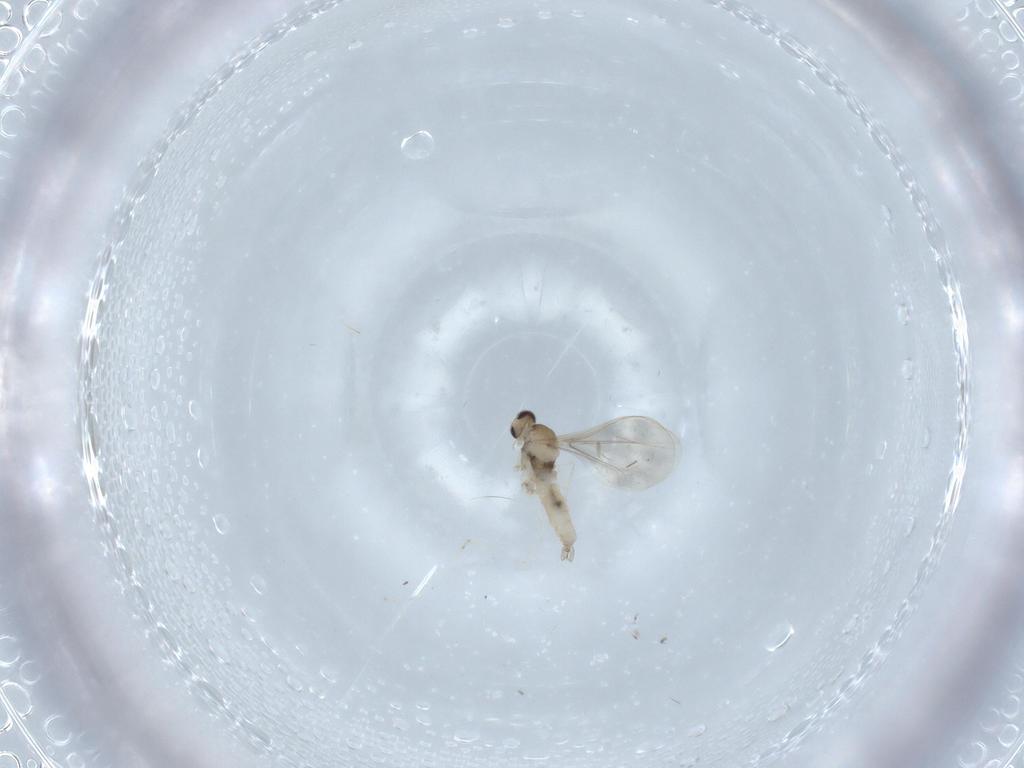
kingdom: Animalia
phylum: Arthropoda
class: Insecta
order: Diptera
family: Cecidomyiidae
